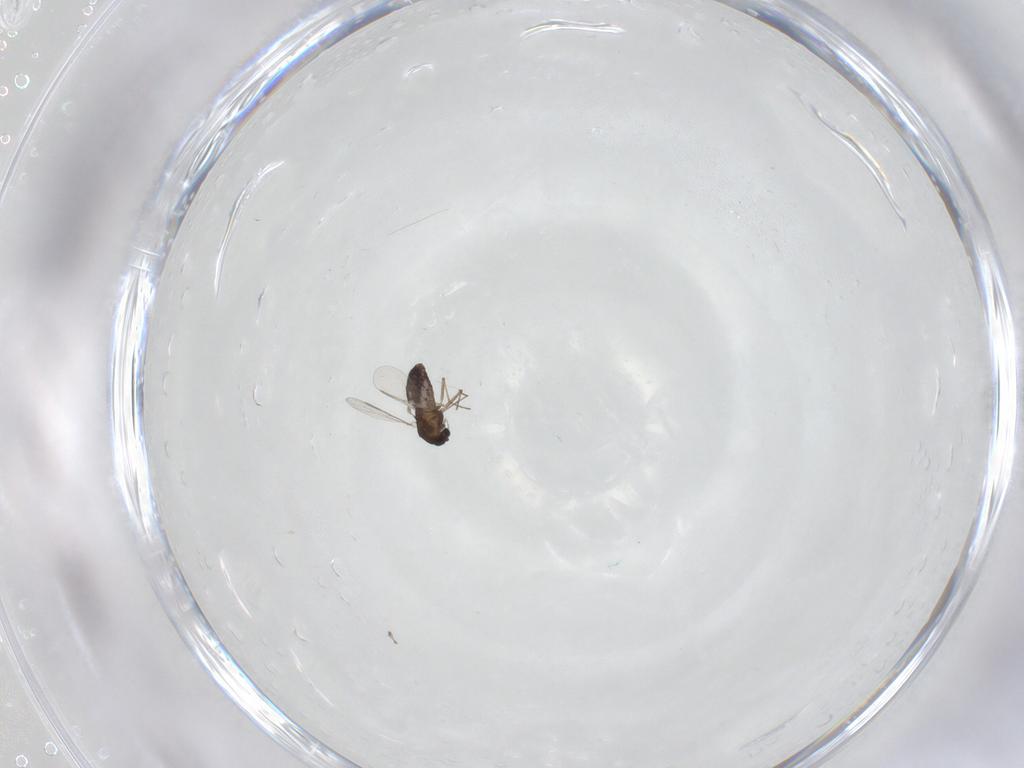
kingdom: Animalia
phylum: Arthropoda
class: Insecta
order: Diptera
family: Chironomidae
